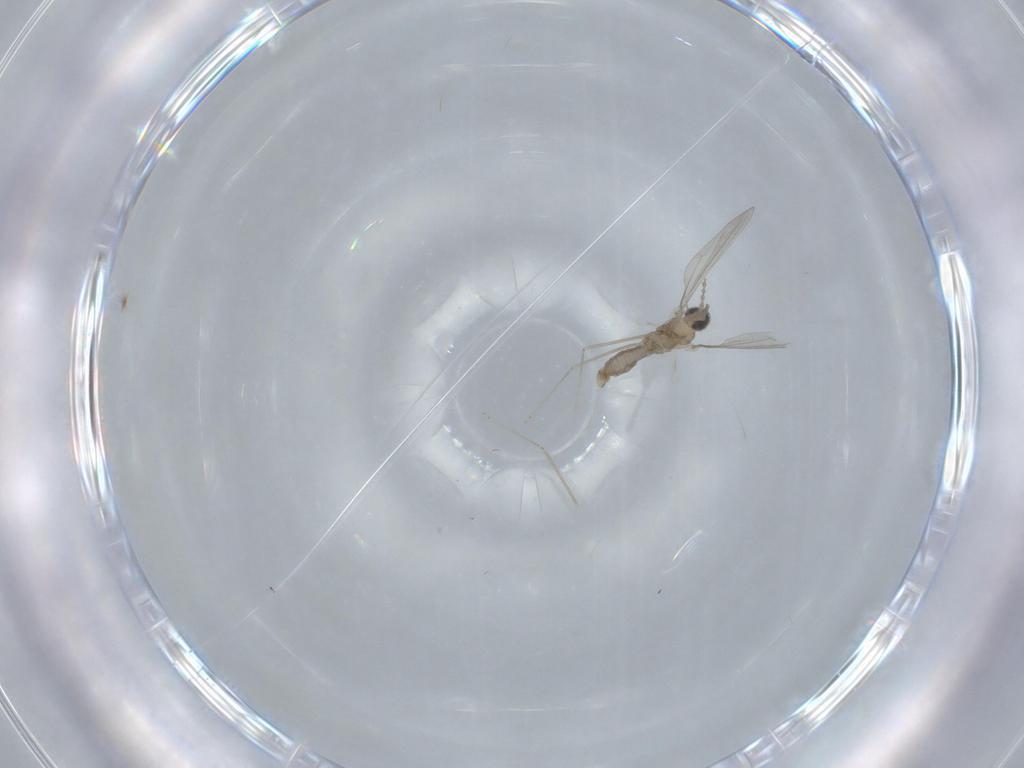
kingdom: Animalia
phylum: Arthropoda
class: Insecta
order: Diptera
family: Cecidomyiidae
